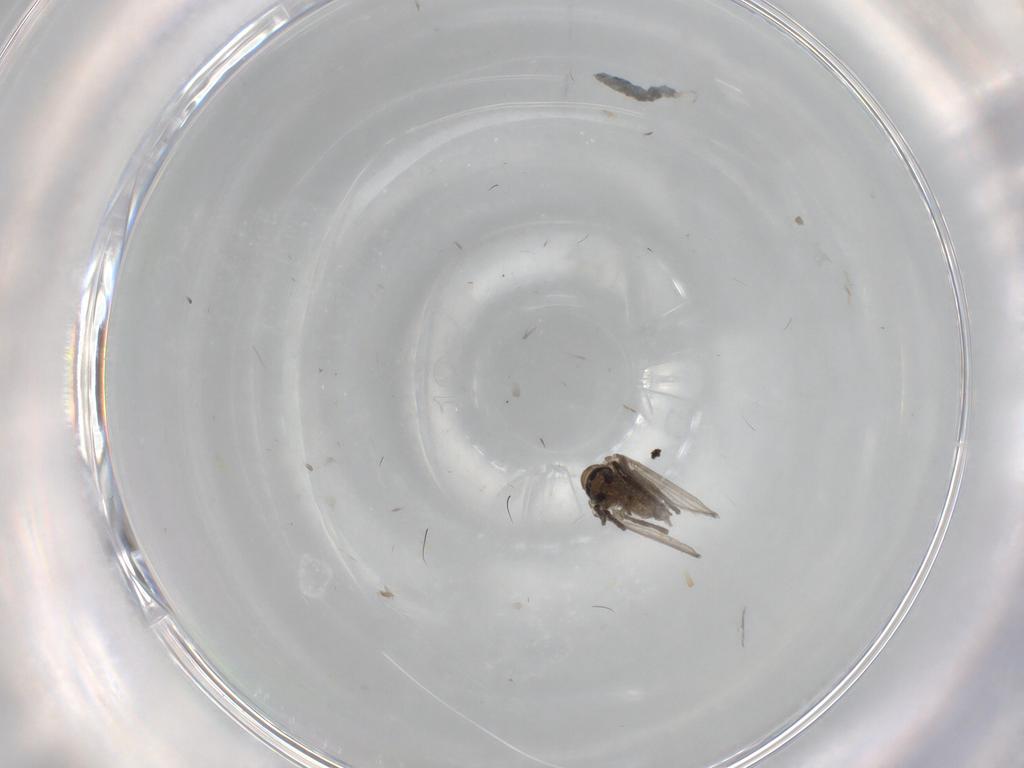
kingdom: Animalia
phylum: Arthropoda
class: Insecta
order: Diptera
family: Psychodidae
